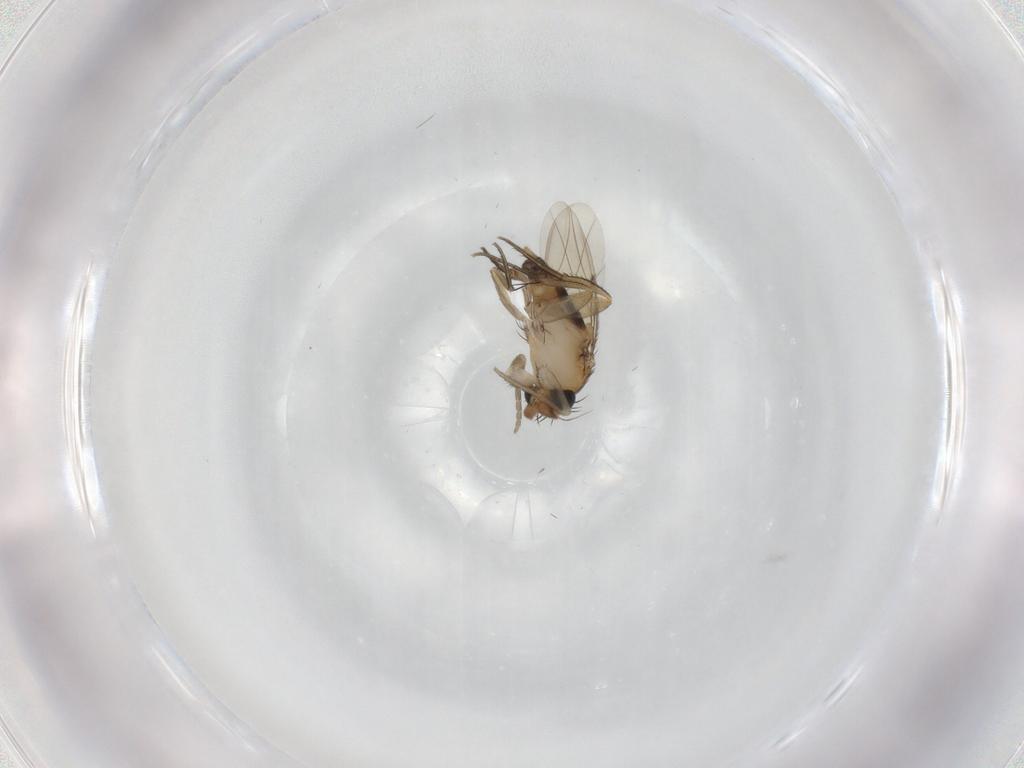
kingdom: Animalia
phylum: Arthropoda
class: Insecta
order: Diptera
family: Phoridae
